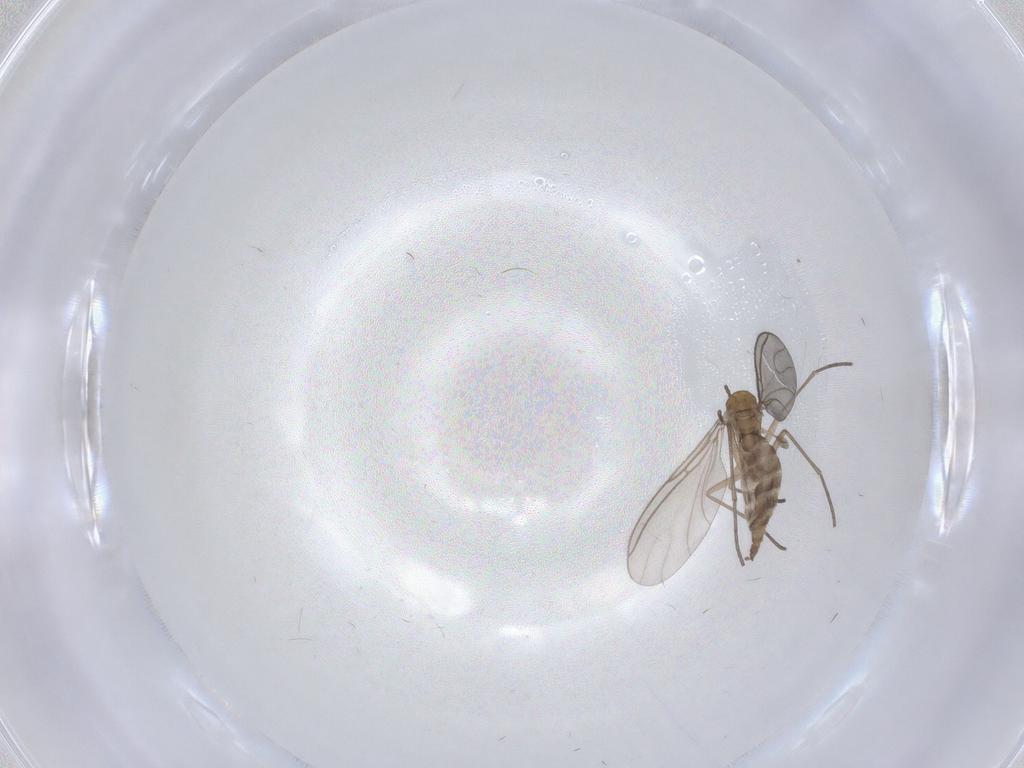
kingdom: Animalia
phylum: Arthropoda
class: Insecta
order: Diptera
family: Sciaridae
